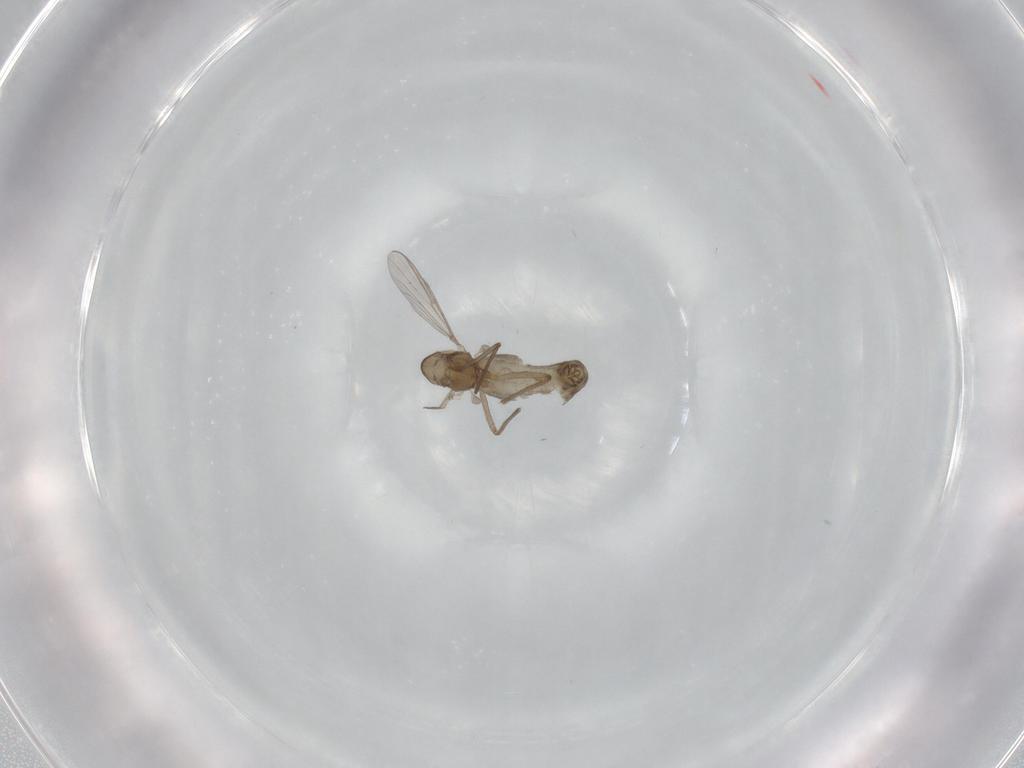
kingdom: Animalia
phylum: Arthropoda
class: Insecta
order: Diptera
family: Chironomidae
